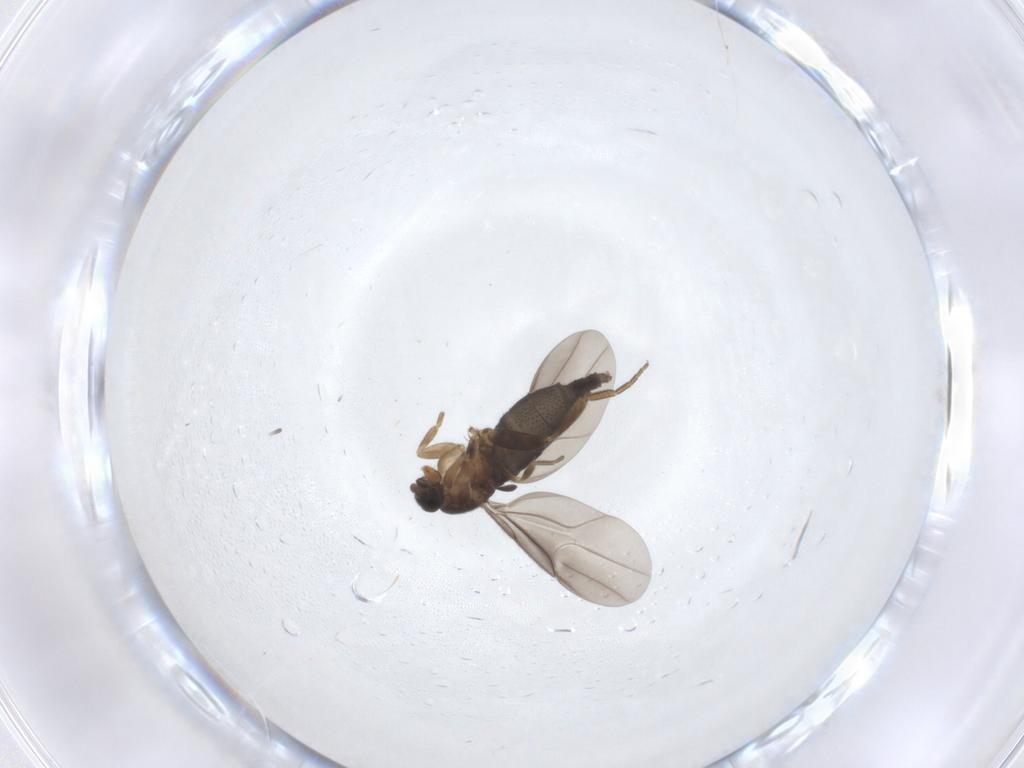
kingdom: Animalia
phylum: Arthropoda
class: Insecta
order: Diptera
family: Phoridae
